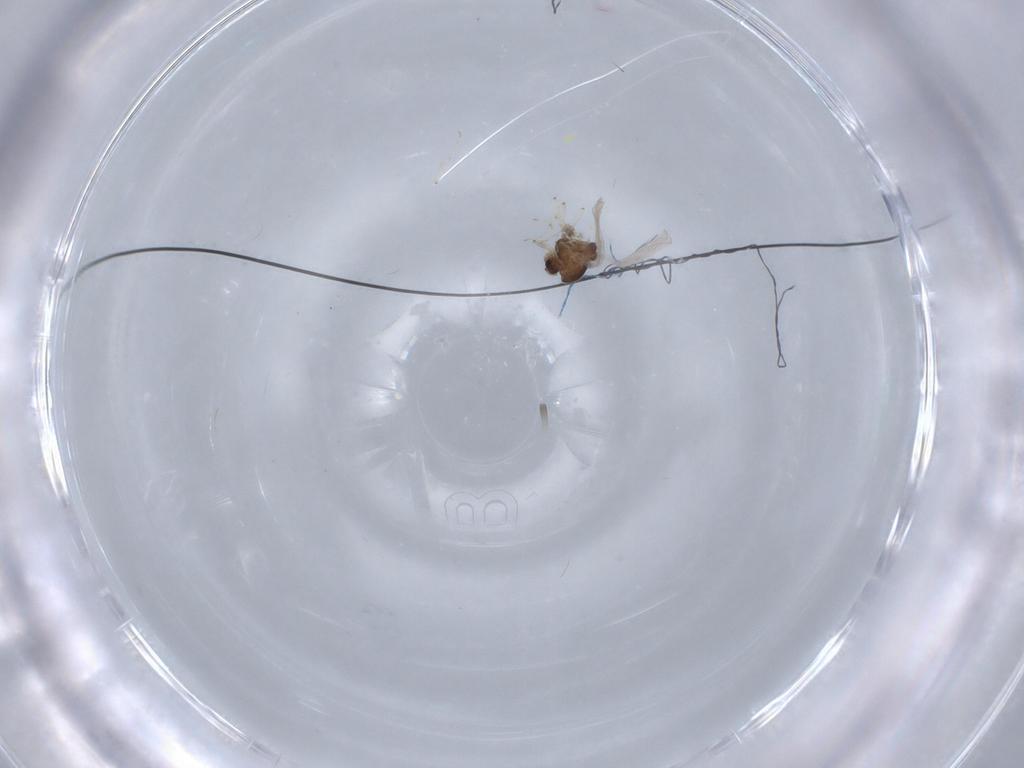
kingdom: Animalia
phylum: Arthropoda
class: Insecta
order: Diptera
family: Chironomidae
